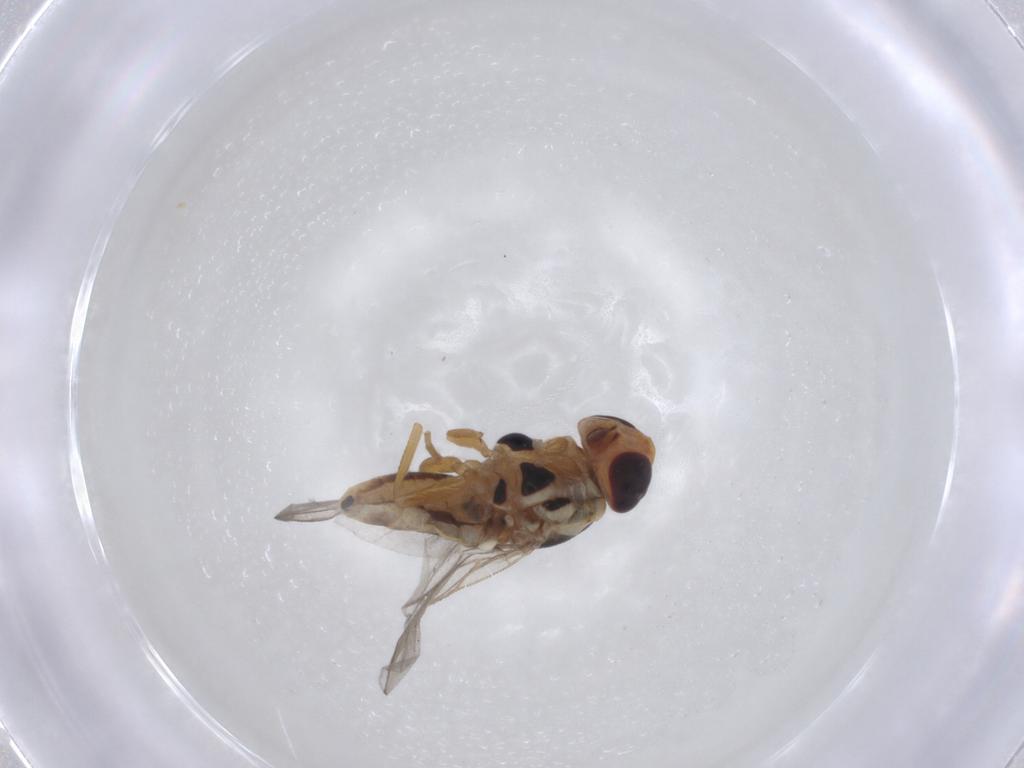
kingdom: Animalia
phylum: Arthropoda
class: Insecta
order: Diptera
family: Chloropidae
